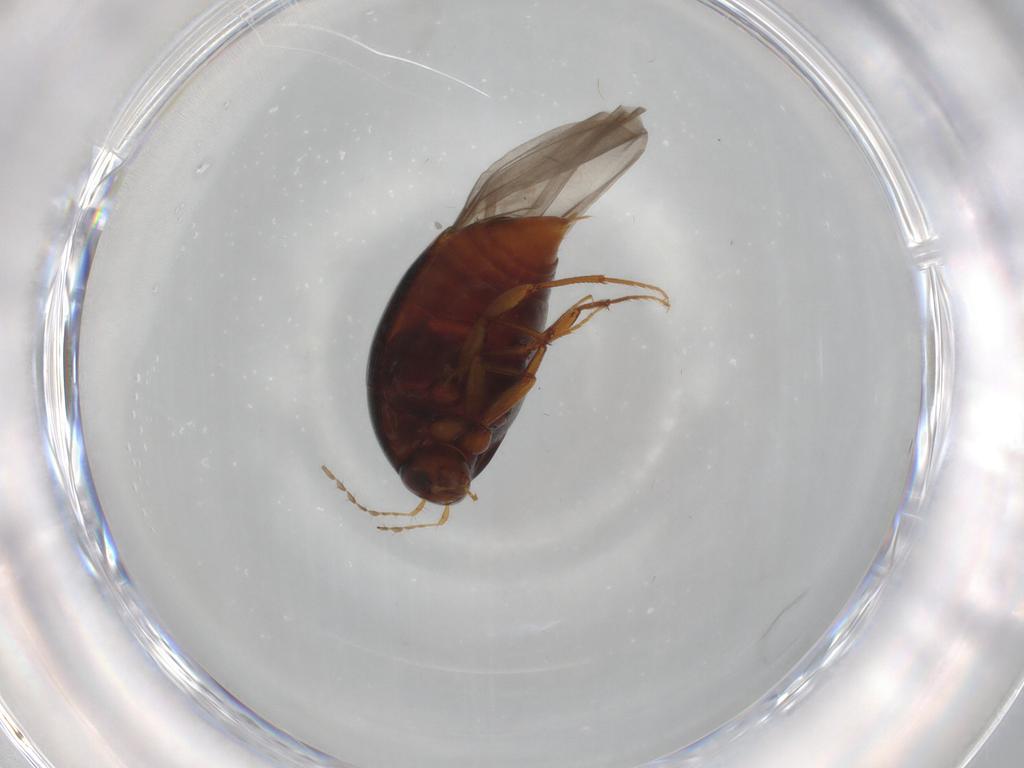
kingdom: Animalia
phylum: Arthropoda
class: Insecta
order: Coleoptera
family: Staphylinidae
